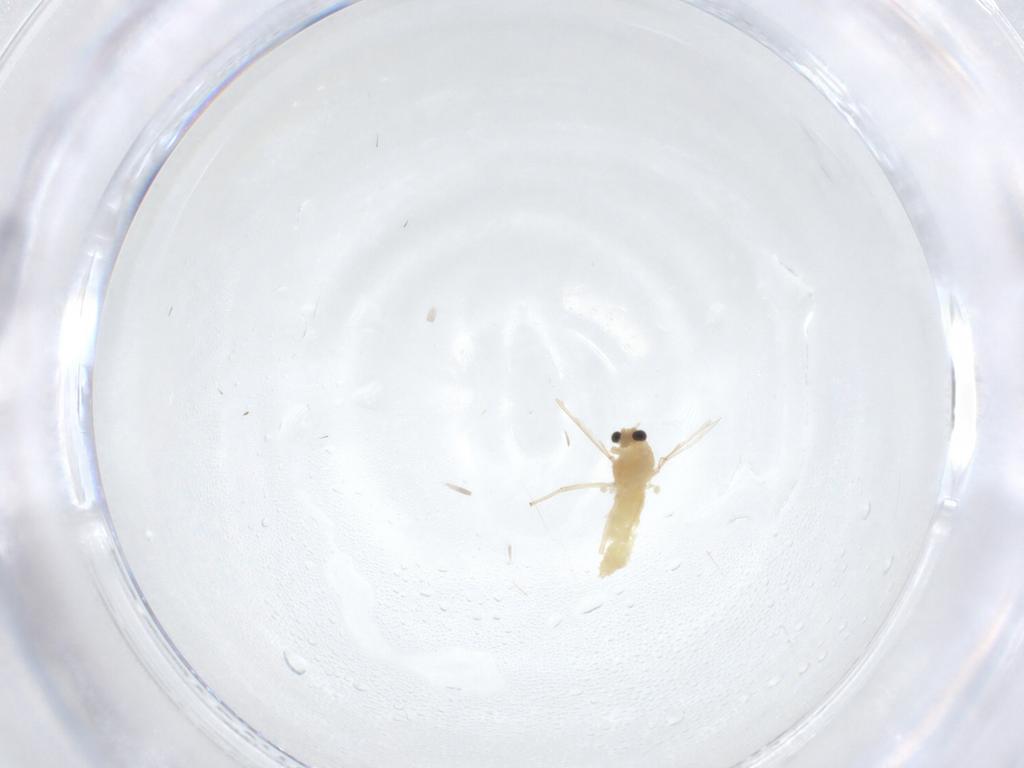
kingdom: Animalia
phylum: Arthropoda
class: Insecta
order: Diptera
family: Chironomidae
